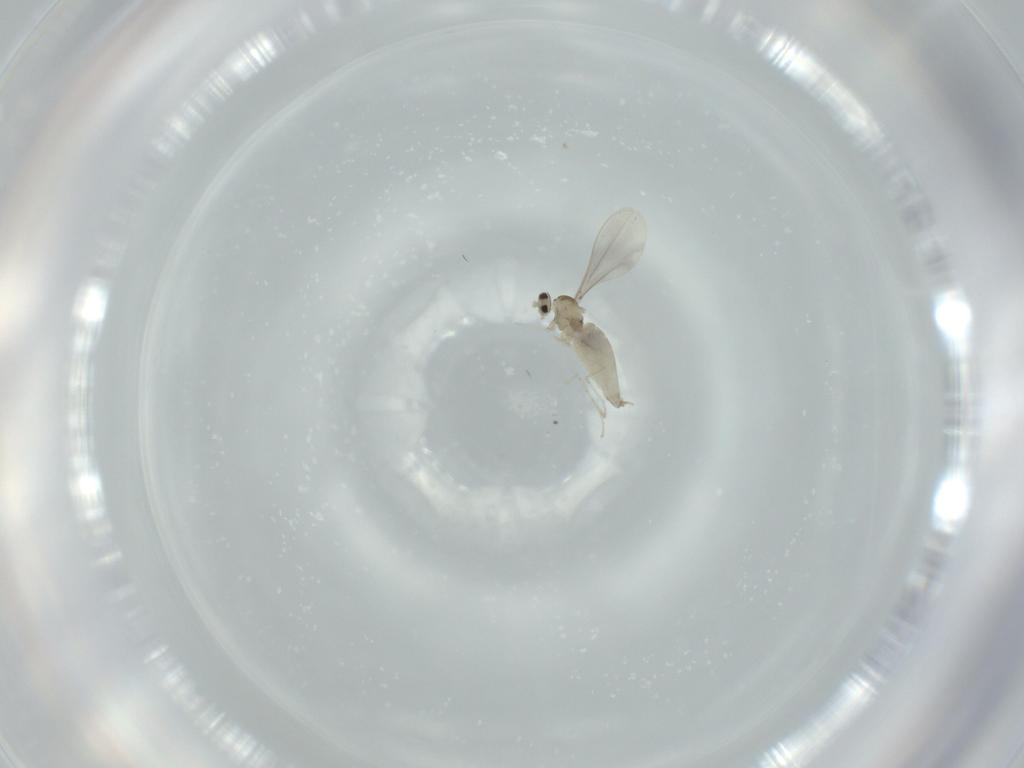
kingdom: Animalia
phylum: Arthropoda
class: Insecta
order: Diptera
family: Cecidomyiidae
